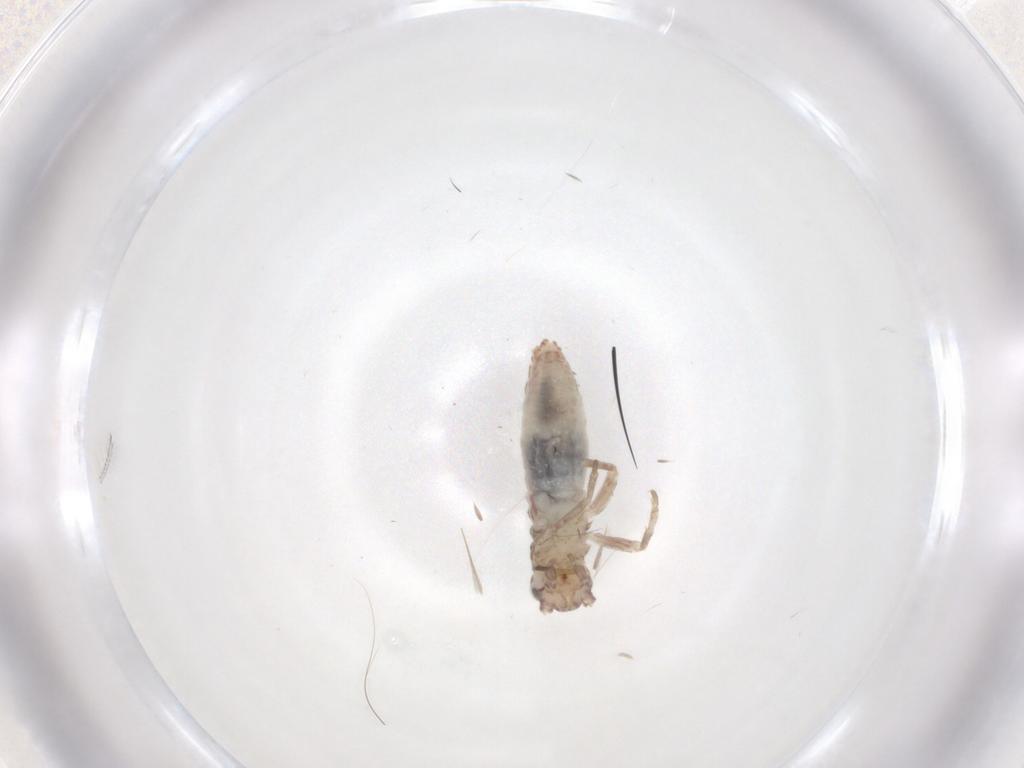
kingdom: Animalia
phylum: Arthropoda
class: Insecta
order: Orthoptera
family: Mogoplistidae
